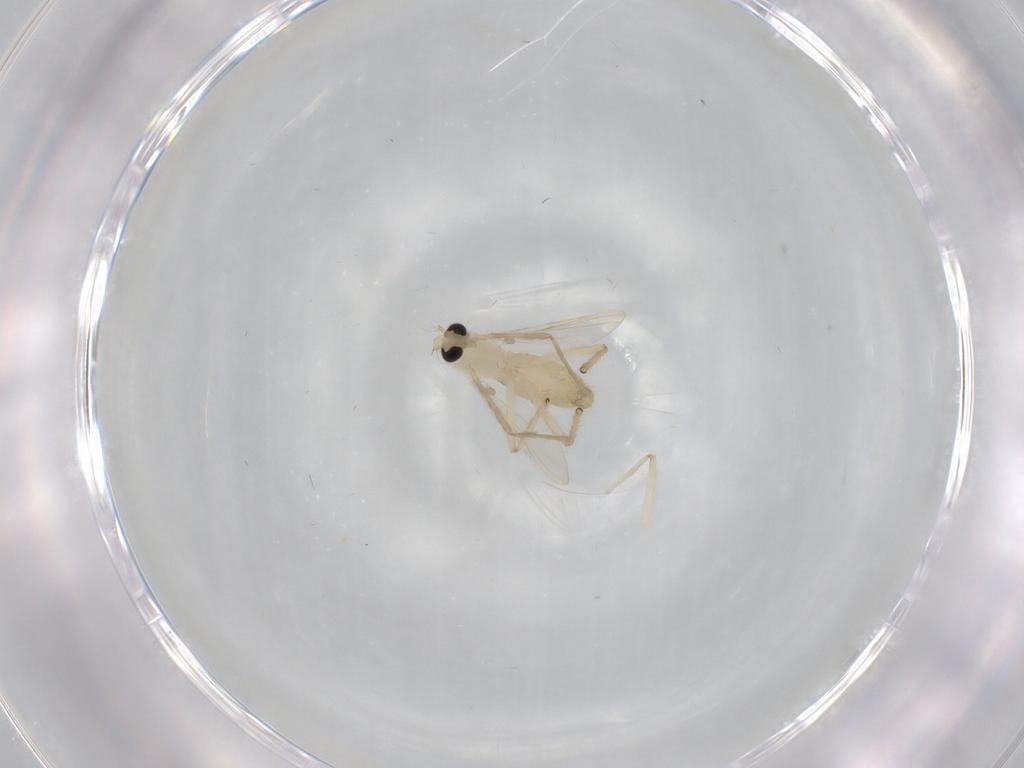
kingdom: Animalia
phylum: Arthropoda
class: Insecta
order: Diptera
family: Chironomidae
